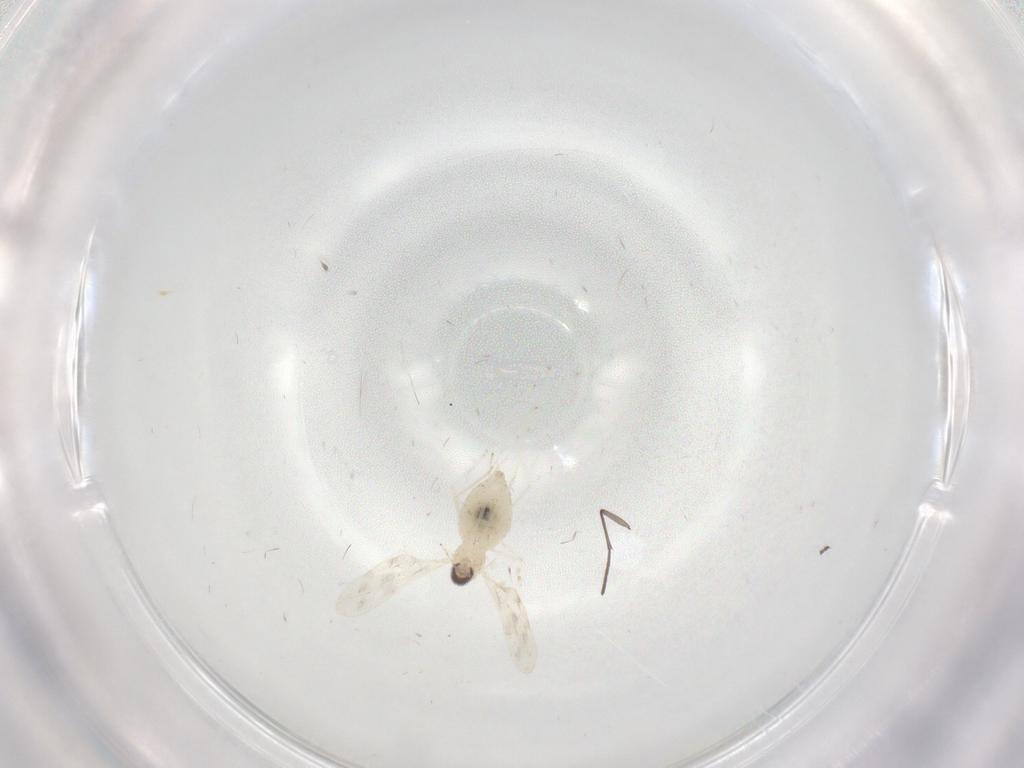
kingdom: Animalia
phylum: Arthropoda
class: Insecta
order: Diptera
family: Cecidomyiidae
